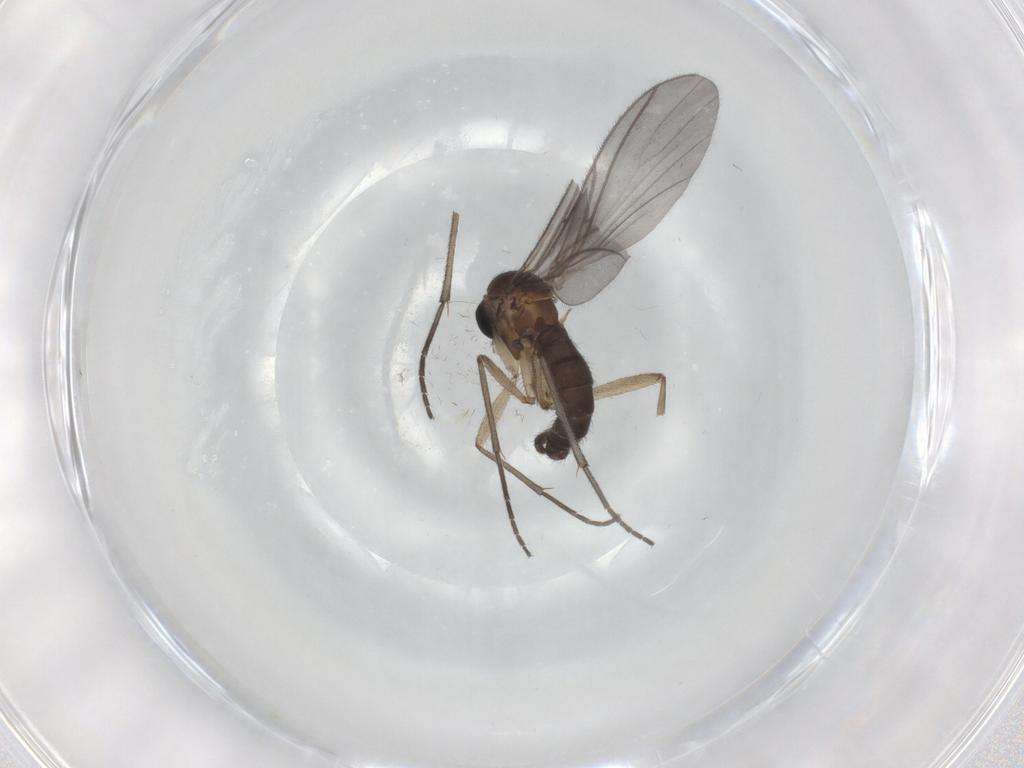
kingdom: Animalia
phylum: Arthropoda
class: Insecta
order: Diptera
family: Sciaridae
